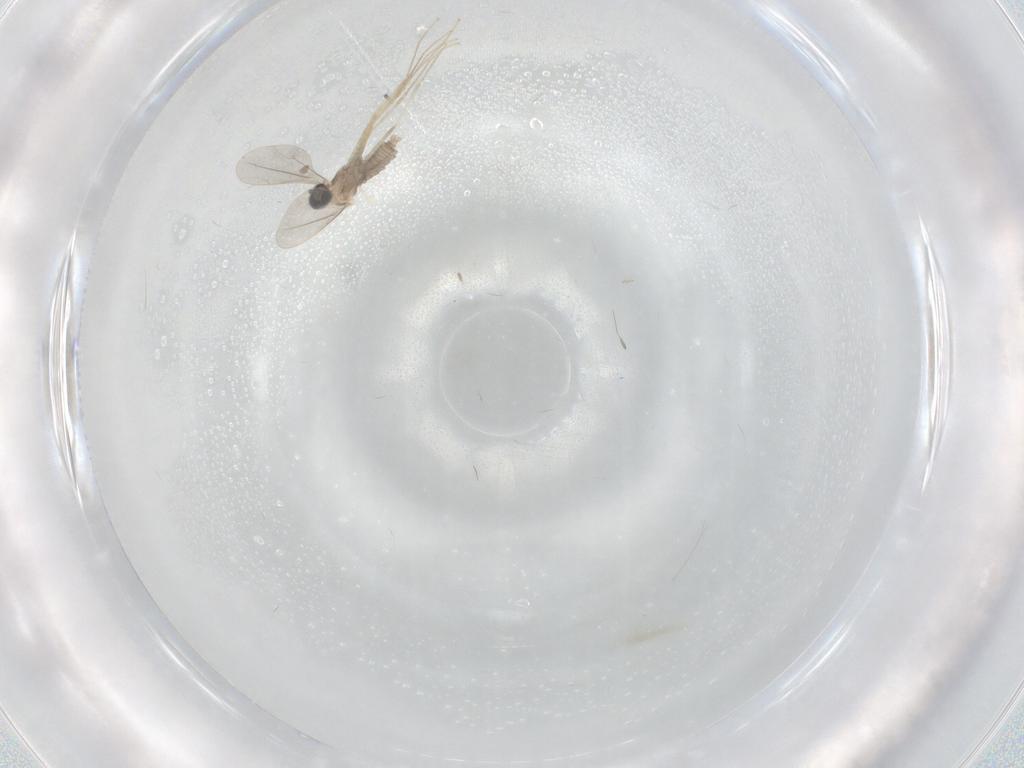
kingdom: Animalia
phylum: Arthropoda
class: Insecta
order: Diptera
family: Cecidomyiidae
